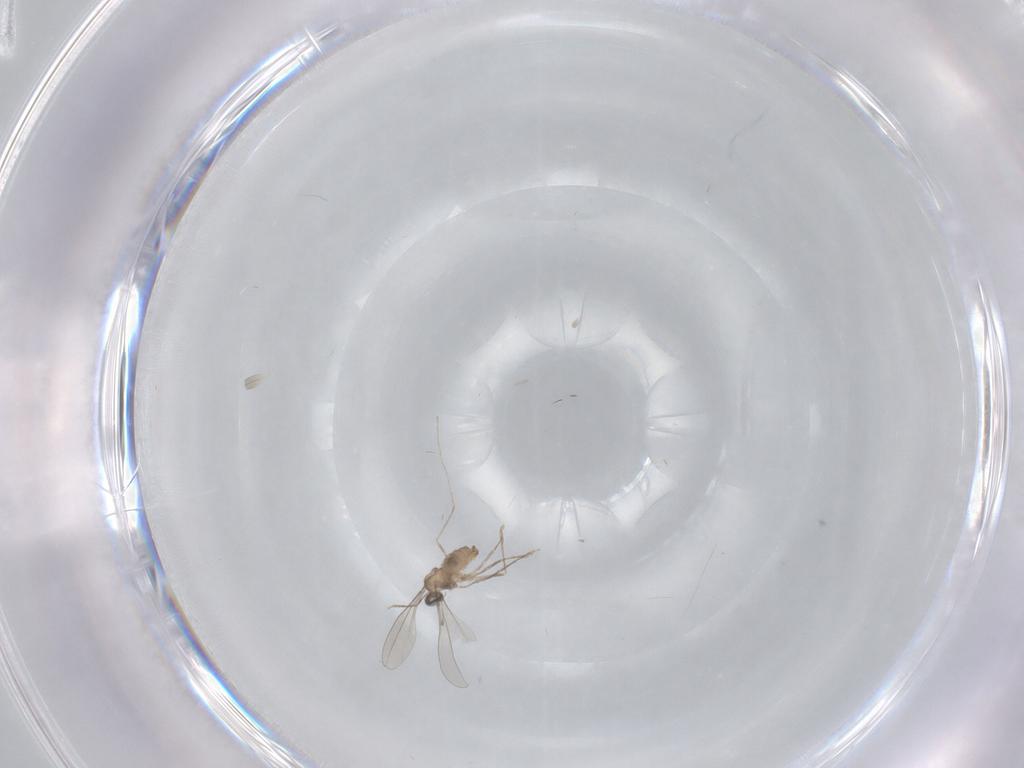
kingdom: Animalia
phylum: Arthropoda
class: Insecta
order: Diptera
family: Cecidomyiidae
